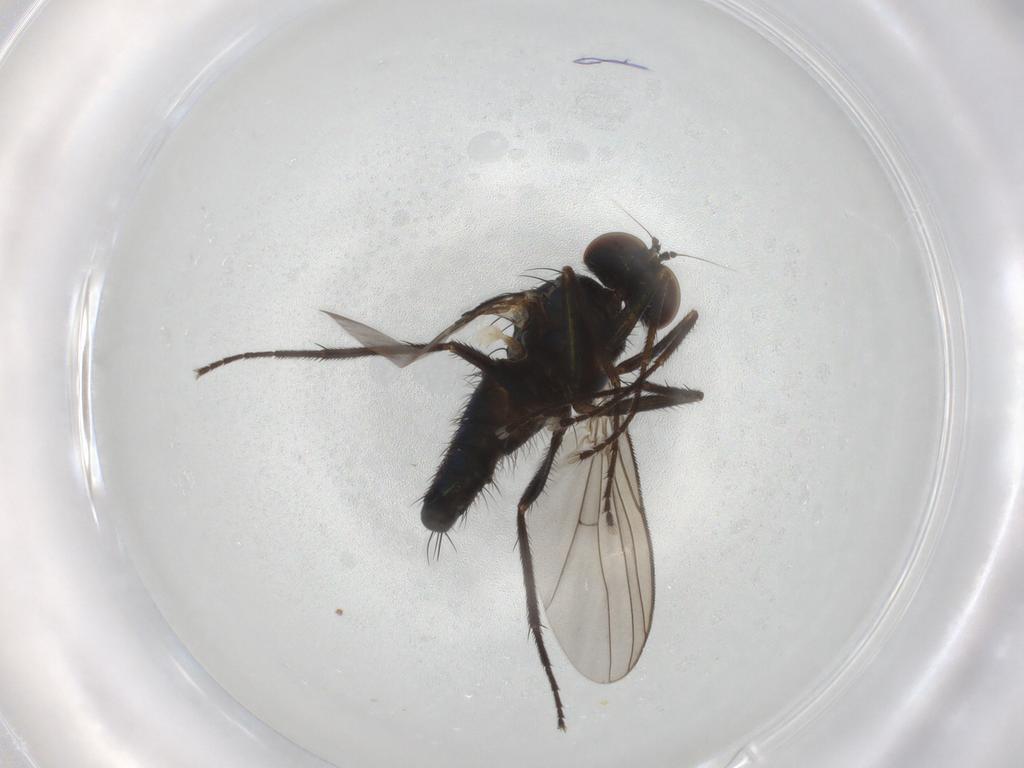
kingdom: Animalia
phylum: Arthropoda
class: Insecta
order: Diptera
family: Dolichopodidae
